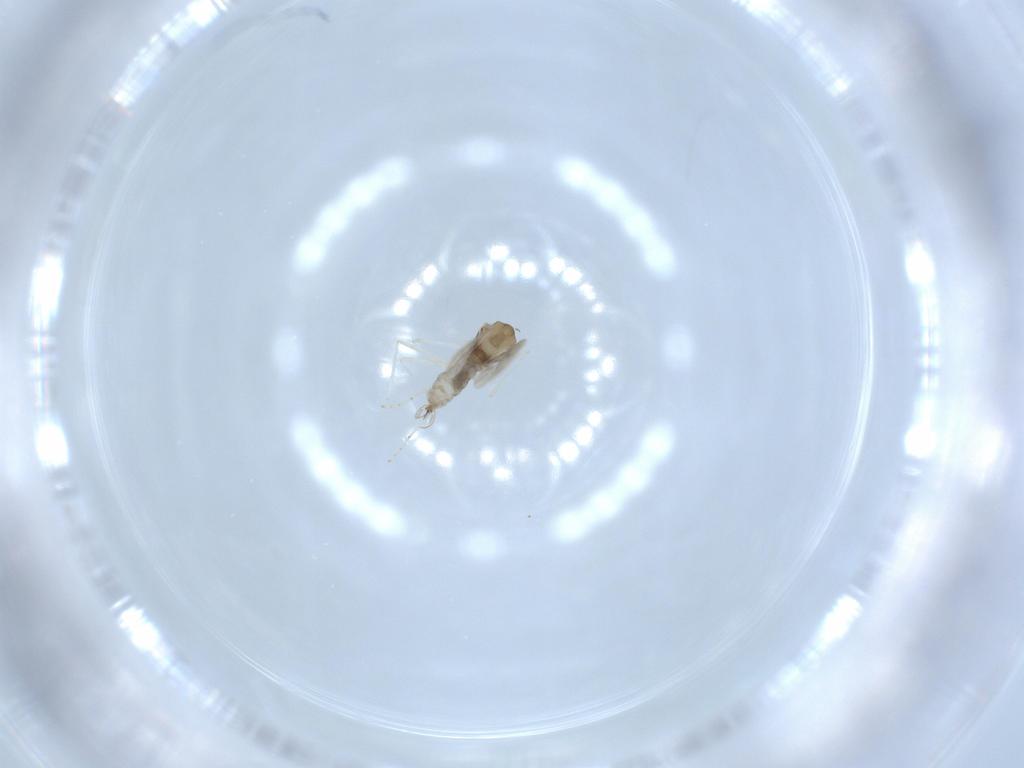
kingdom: Animalia
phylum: Arthropoda
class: Insecta
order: Diptera
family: Cecidomyiidae
